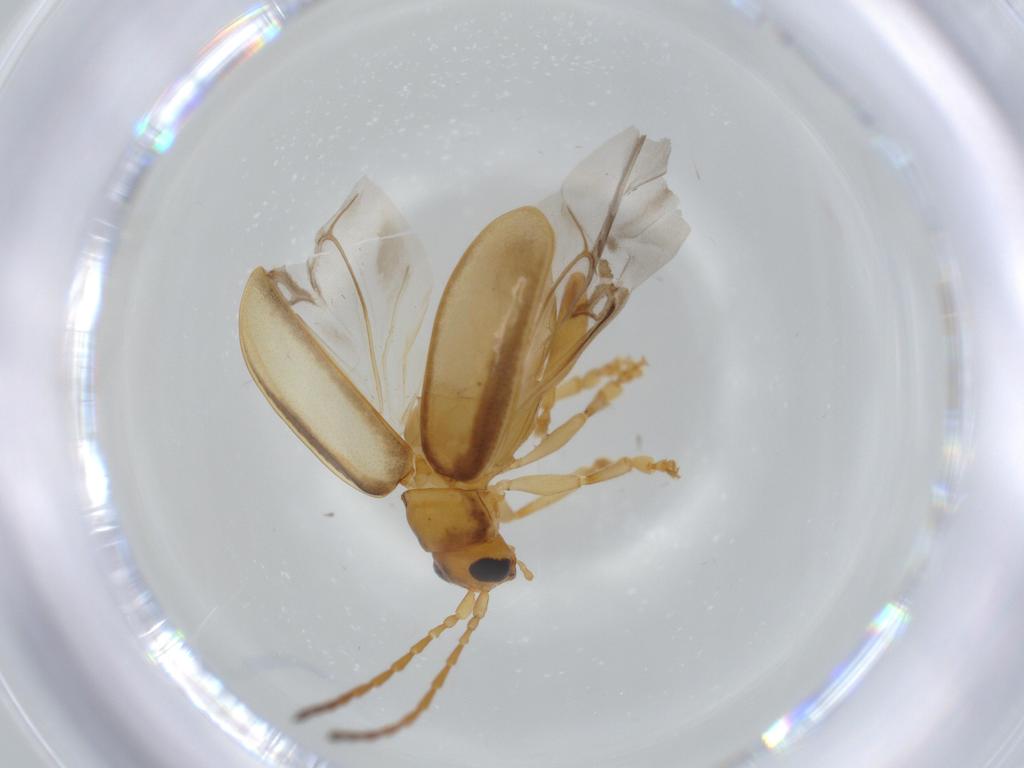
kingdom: Animalia
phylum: Arthropoda
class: Insecta
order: Coleoptera
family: Chrysomelidae
